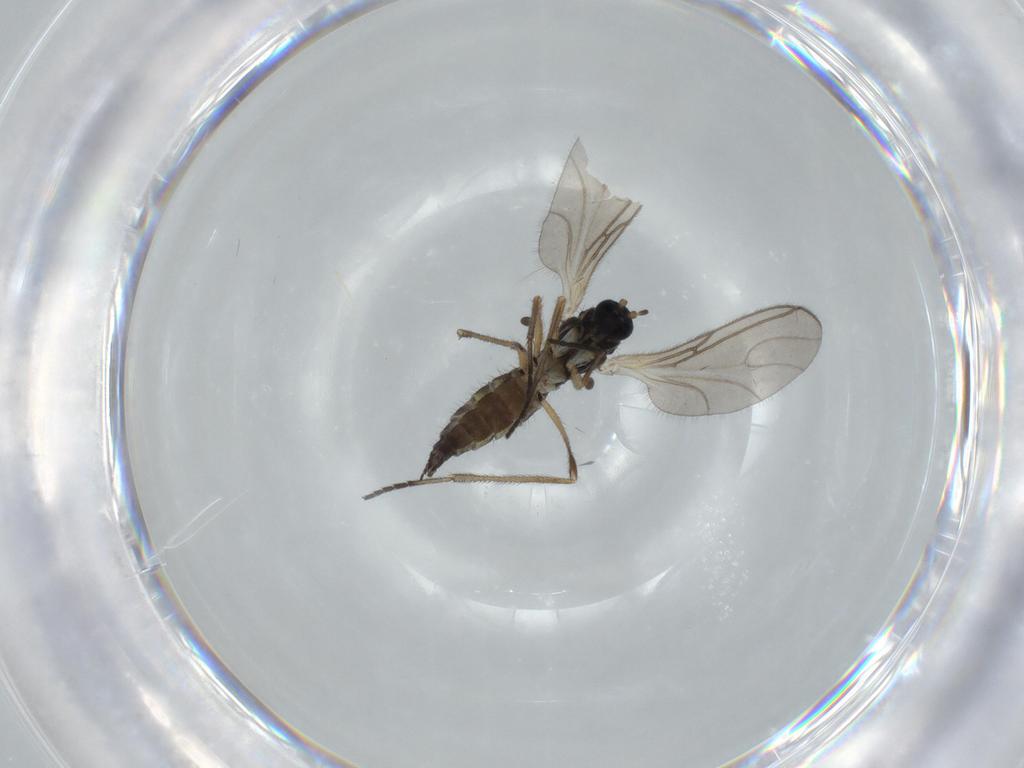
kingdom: Animalia
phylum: Arthropoda
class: Insecta
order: Diptera
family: Sciaridae
